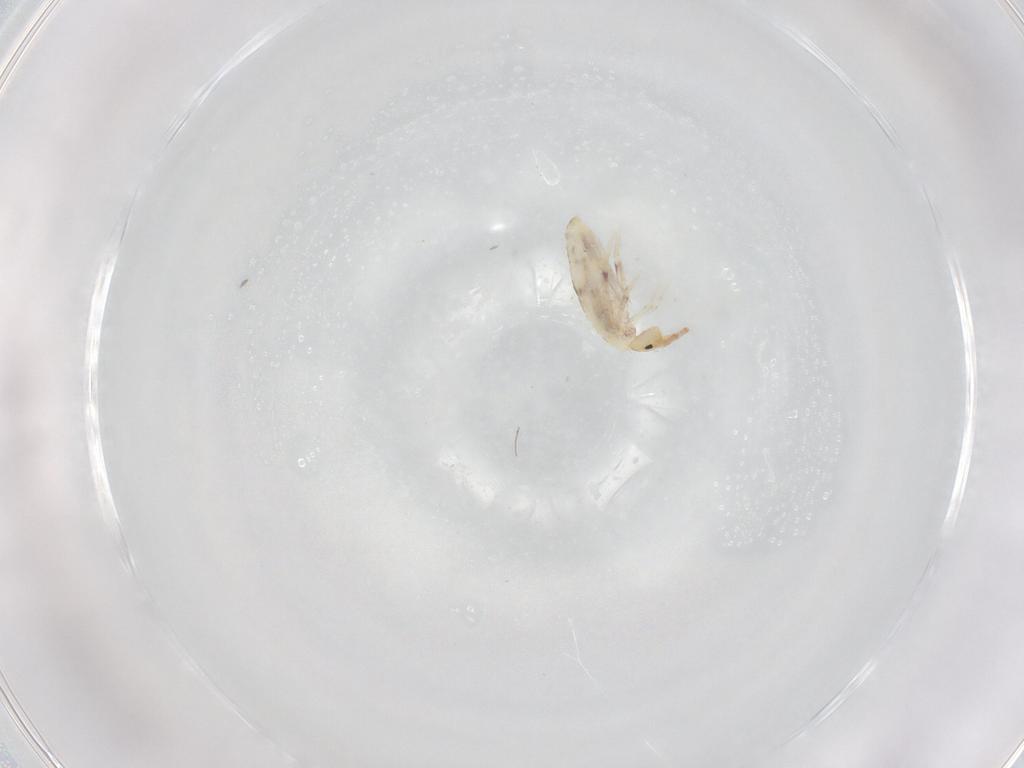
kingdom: Animalia
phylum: Arthropoda
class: Collembola
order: Poduromorpha
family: Hypogastruridae
